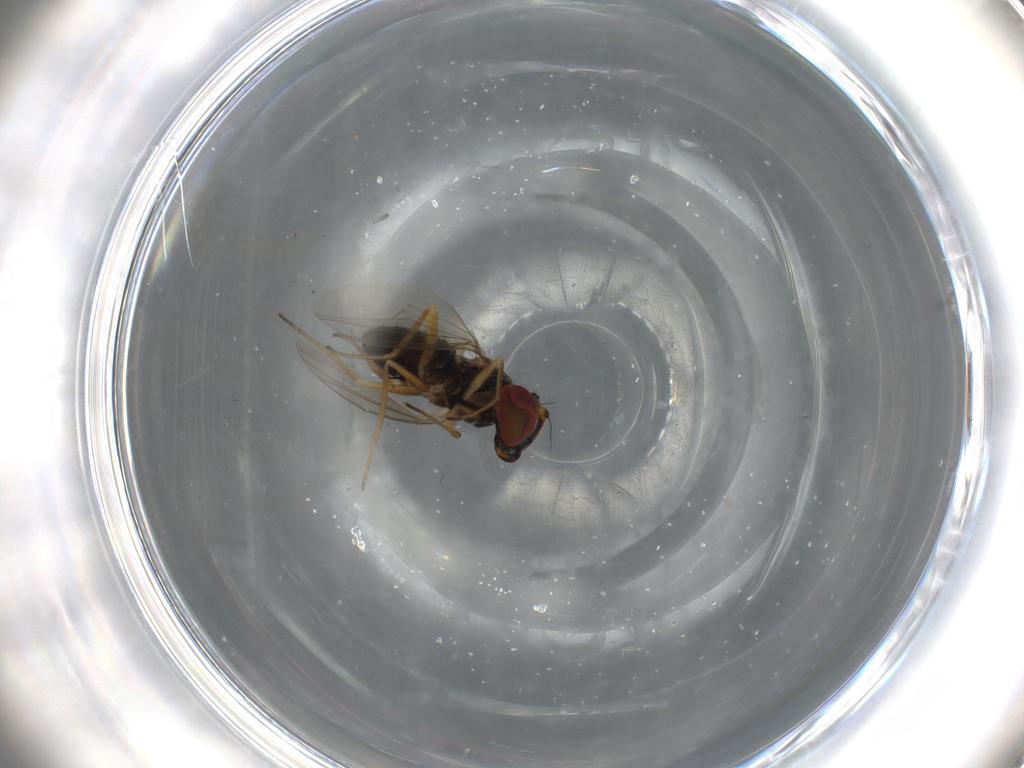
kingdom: Animalia
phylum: Arthropoda
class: Insecta
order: Diptera
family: Dolichopodidae
